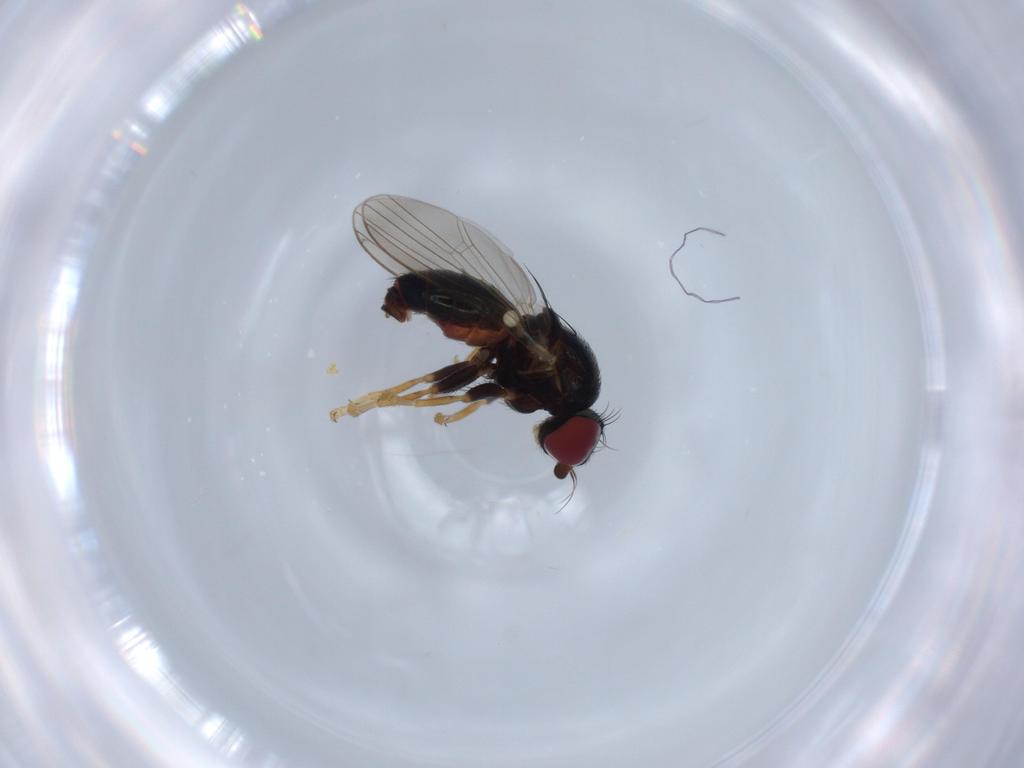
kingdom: Animalia
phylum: Arthropoda
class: Insecta
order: Diptera
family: Chamaemyiidae
